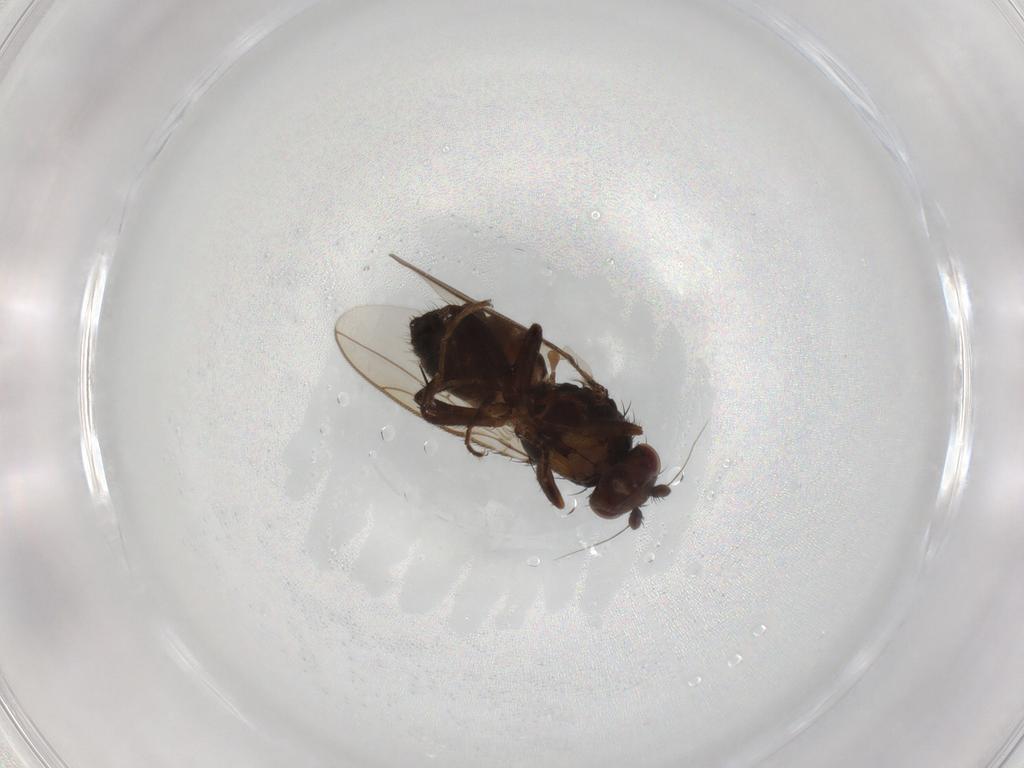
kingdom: Animalia
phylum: Arthropoda
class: Insecta
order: Diptera
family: Sphaeroceridae
